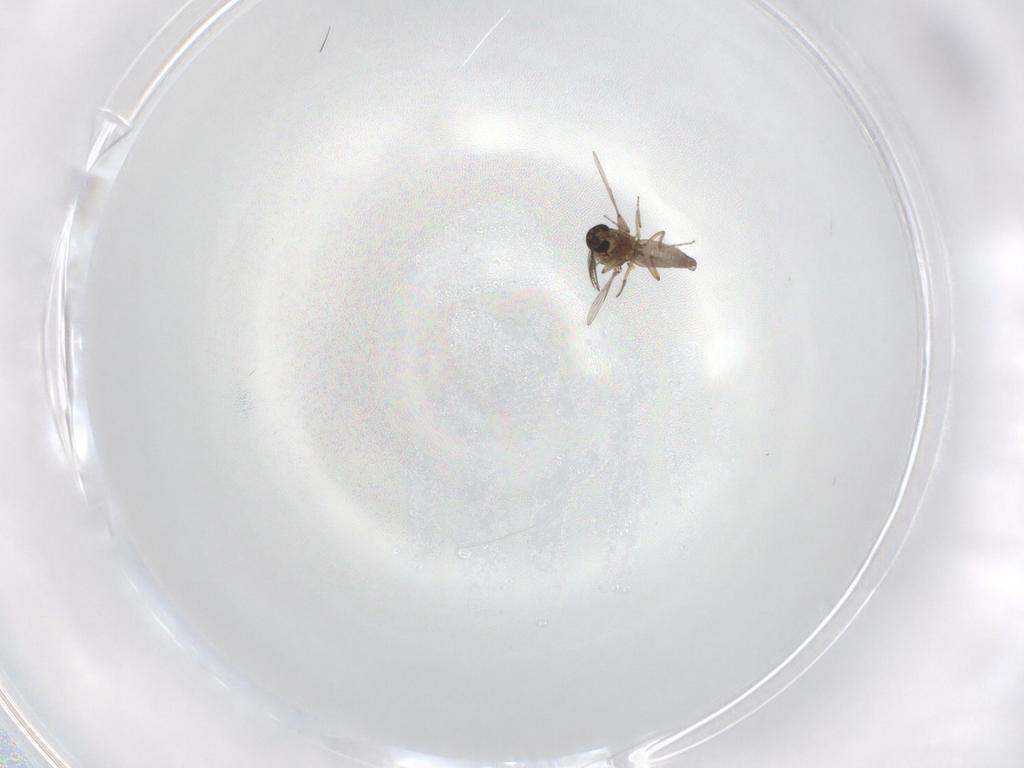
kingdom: Animalia
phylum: Arthropoda
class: Insecta
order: Diptera
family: Ceratopogonidae
